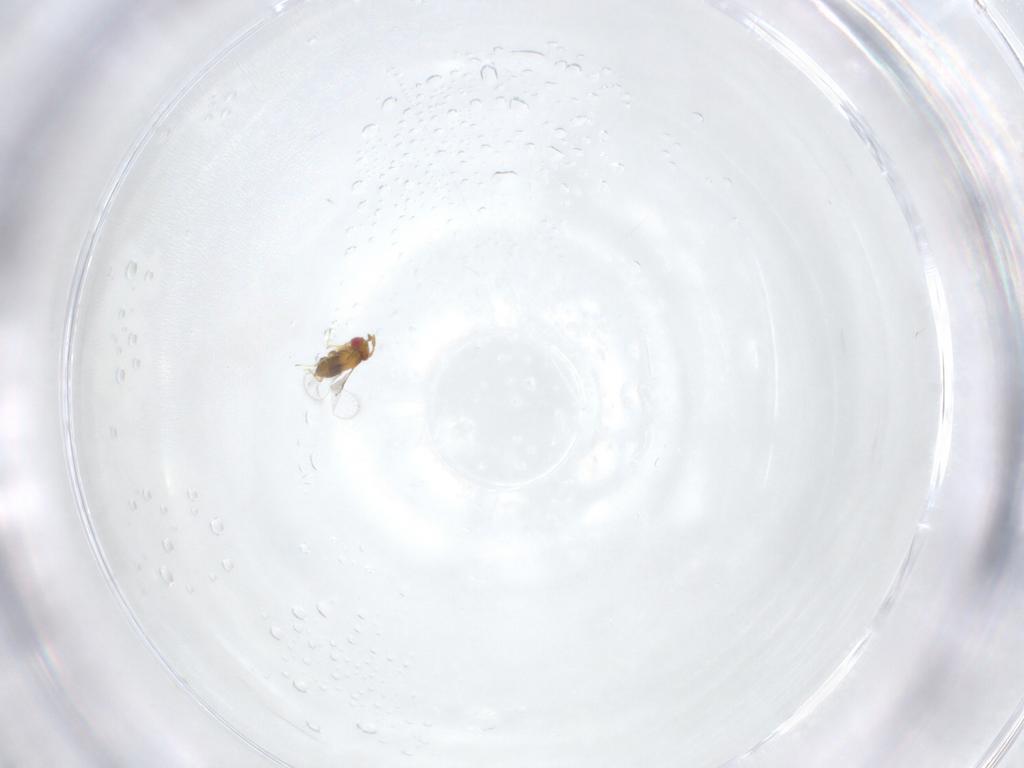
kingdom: Animalia
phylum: Arthropoda
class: Insecta
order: Hymenoptera
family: Trichogrammatidae
